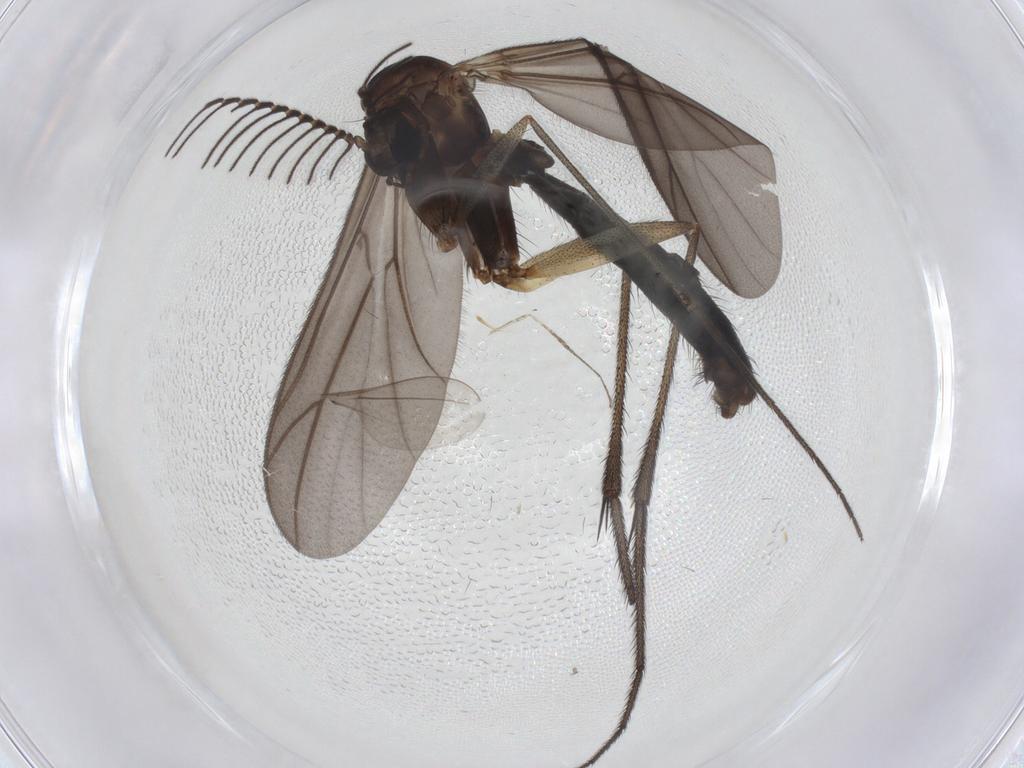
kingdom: Animalia
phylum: Arthropoda
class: Insecta
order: Diptera
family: Ditomyiidae
